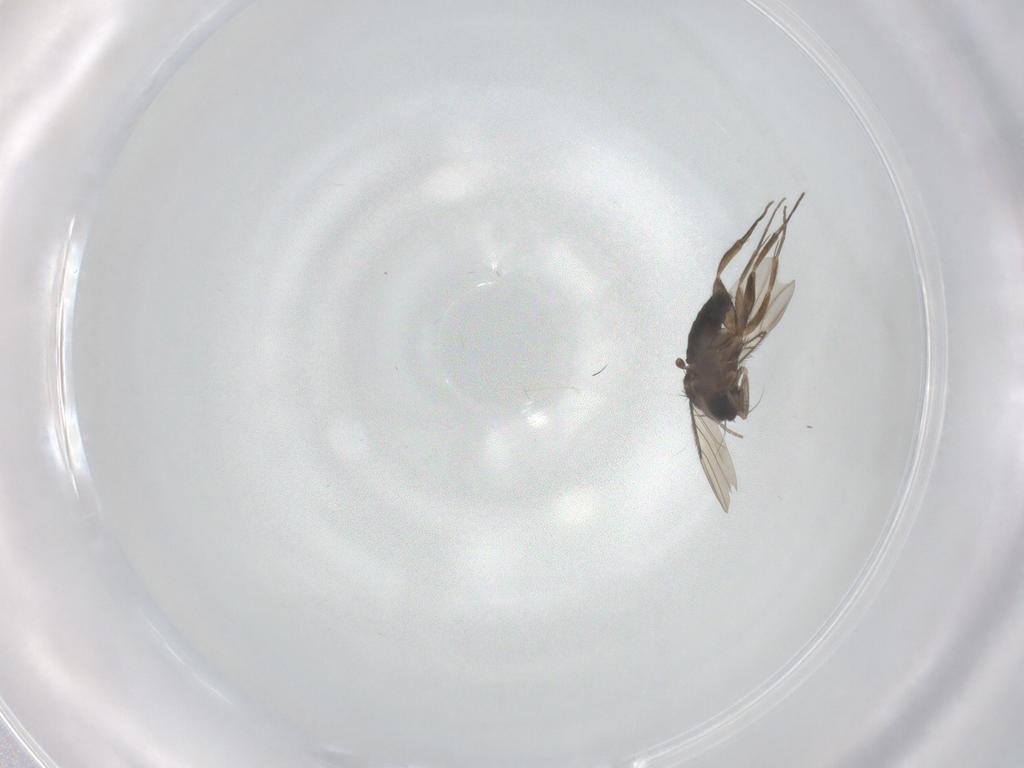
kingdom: Animalia
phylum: Arthropoda
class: Insecta
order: Diptera
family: Phoridae
